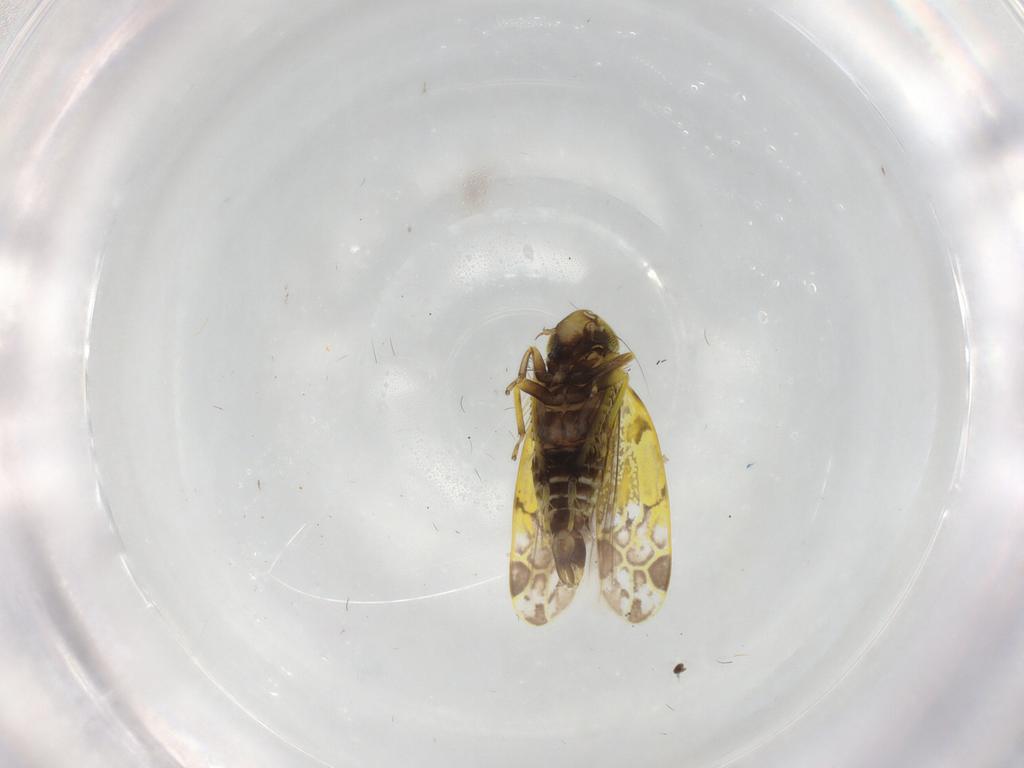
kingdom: Animalia
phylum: Arthropoda
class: Insecta
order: Hemiptera
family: Cicadellidae
